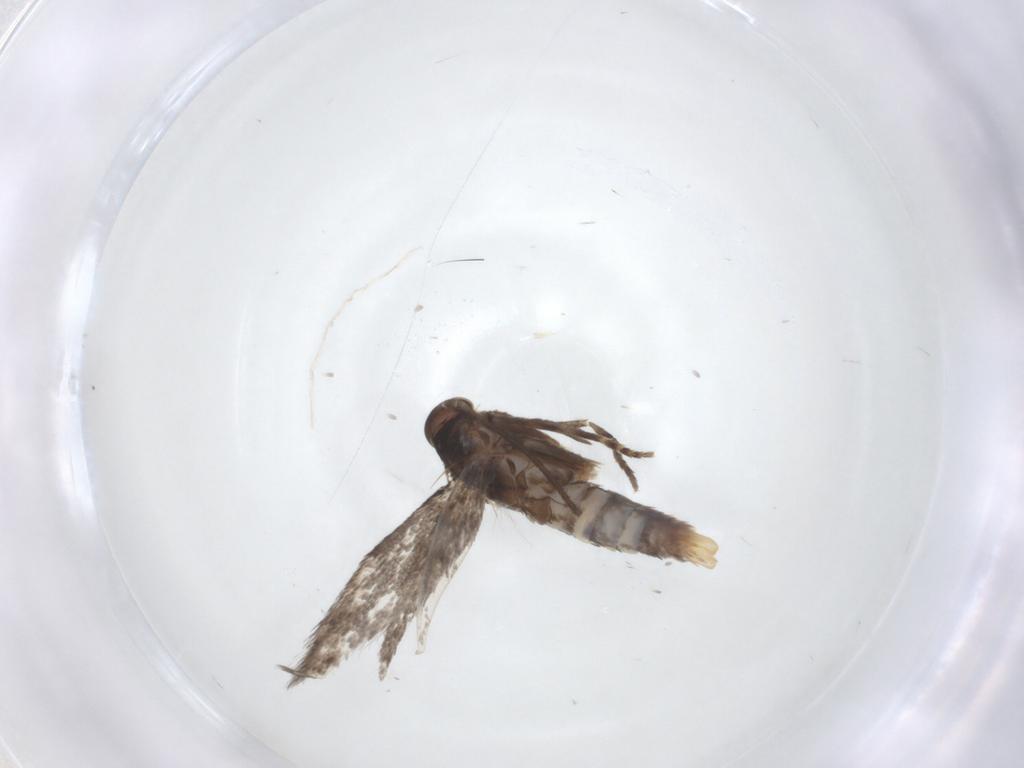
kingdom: Animalia
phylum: Arthropoda
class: Insecta
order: Lepidoptera
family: Elachistidae
